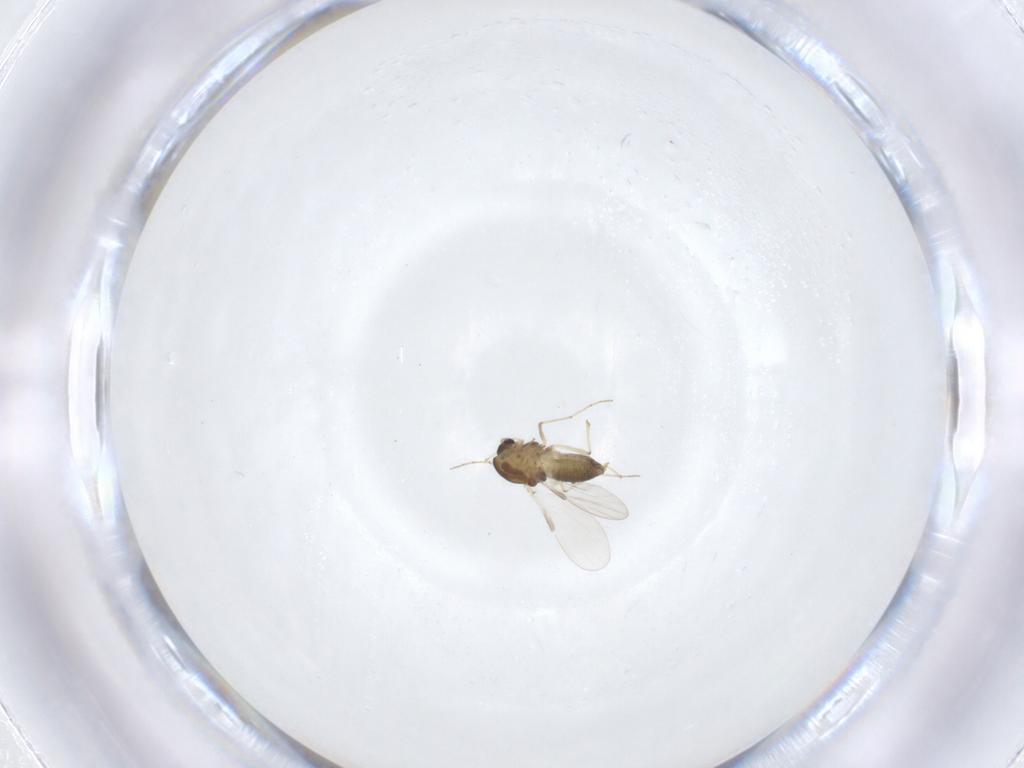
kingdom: Animalia
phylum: Arthropoda
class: Insecta
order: Diptera
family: Chironomidae
